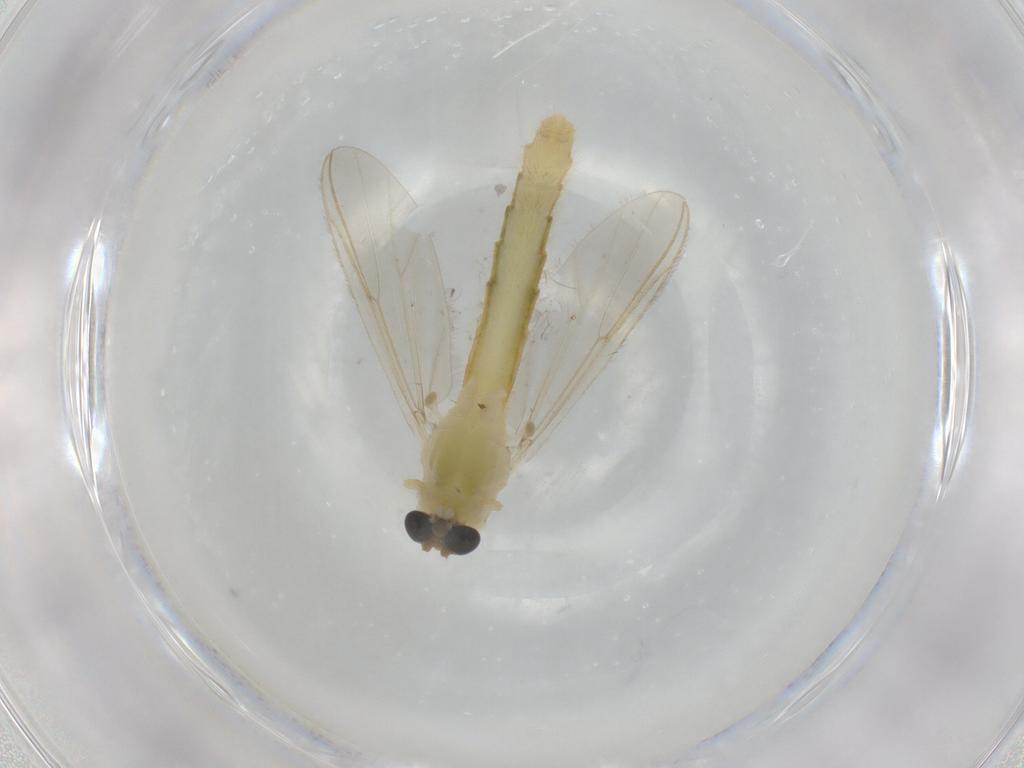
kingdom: Animalia
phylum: Arthropoda
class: Insecta
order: Diptera
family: Chironomidae
